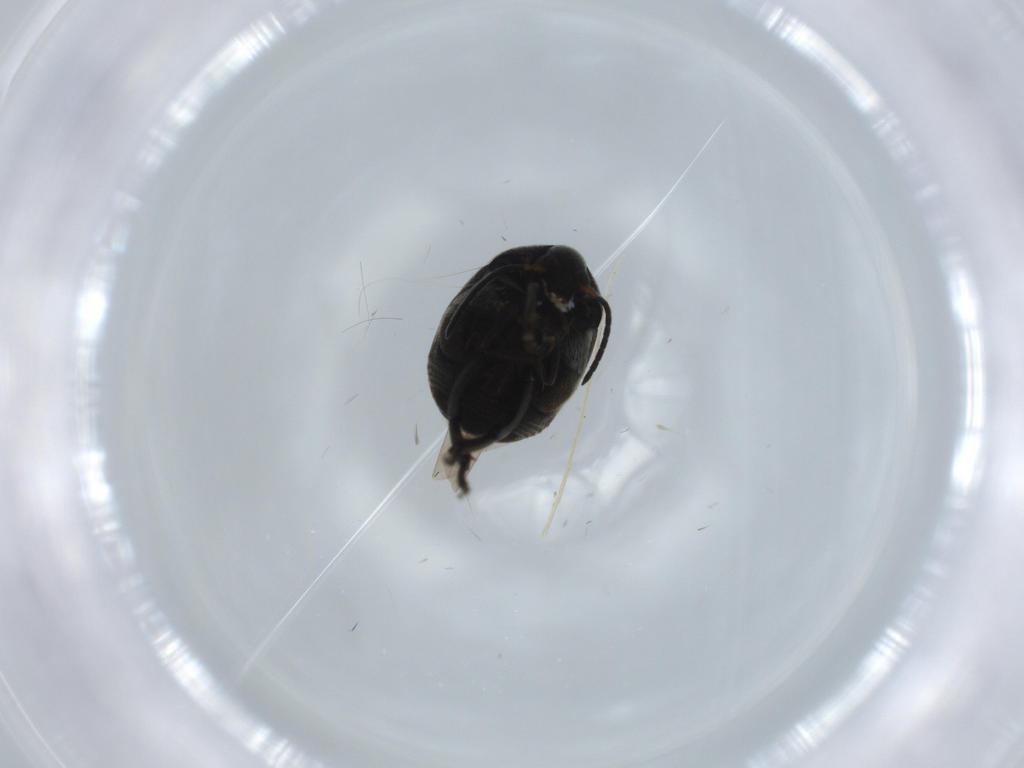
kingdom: Animalia
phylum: Arthropoda
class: Insecta
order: Coleoptera
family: Chrysomelidae
